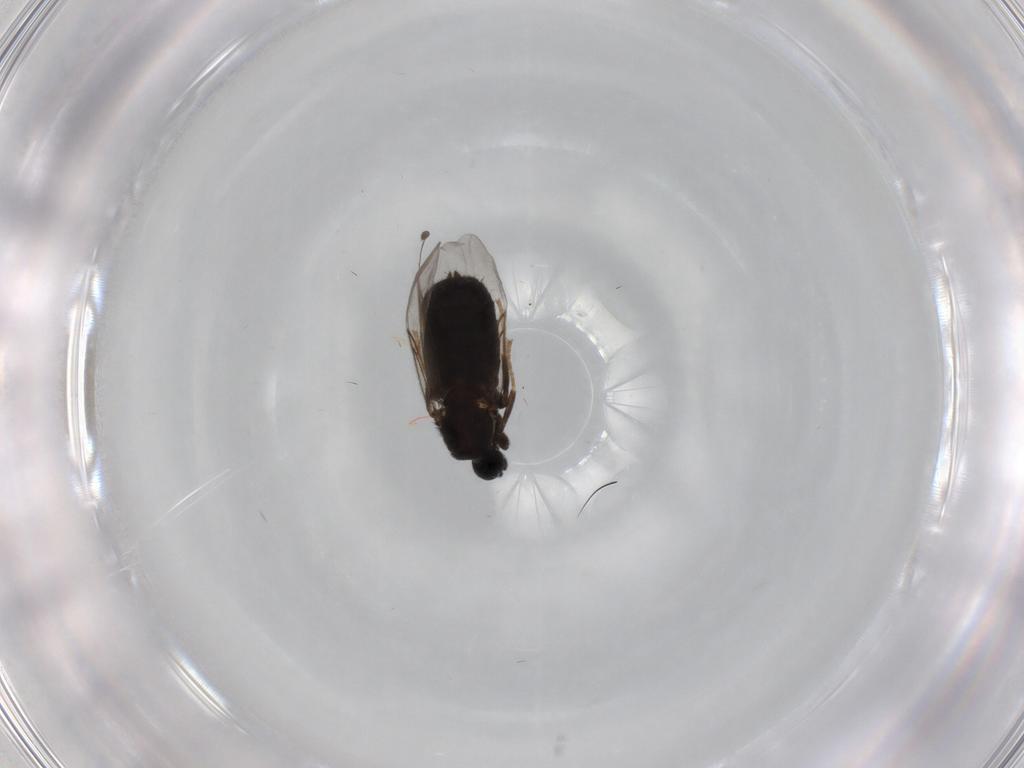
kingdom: Animalia
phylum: Arthropoda
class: Insecta
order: Diptera
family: Scatopsidae
